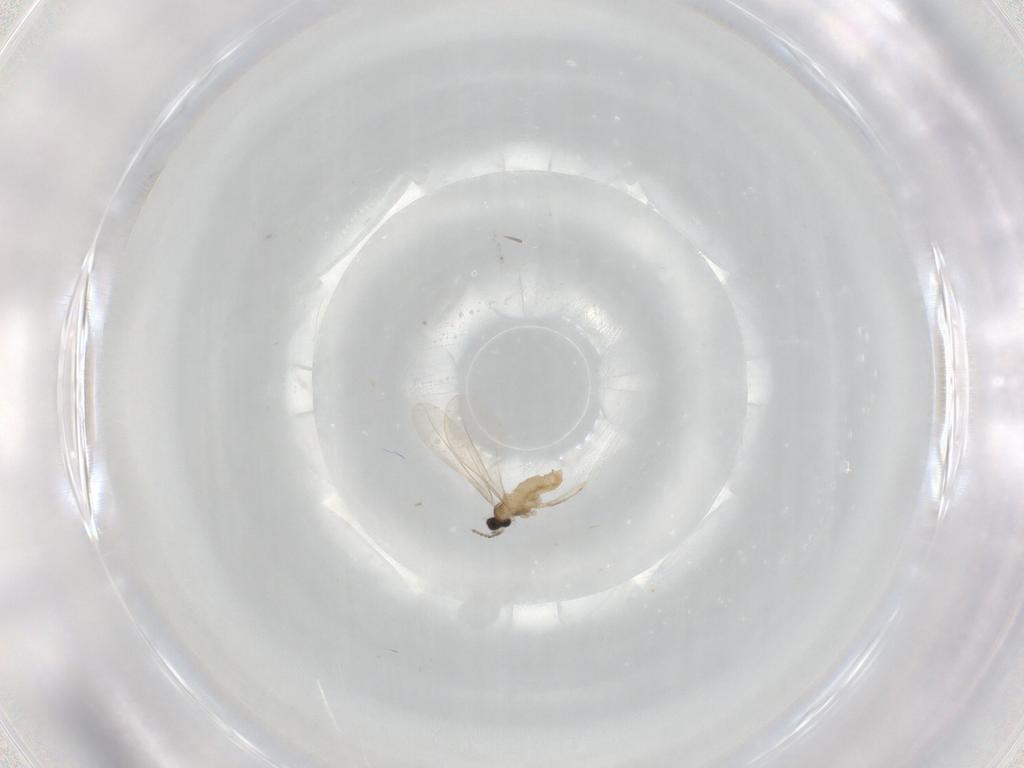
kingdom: Animalia
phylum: Arthropoda
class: Insecta
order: Diptera
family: Cecidomyiidae
